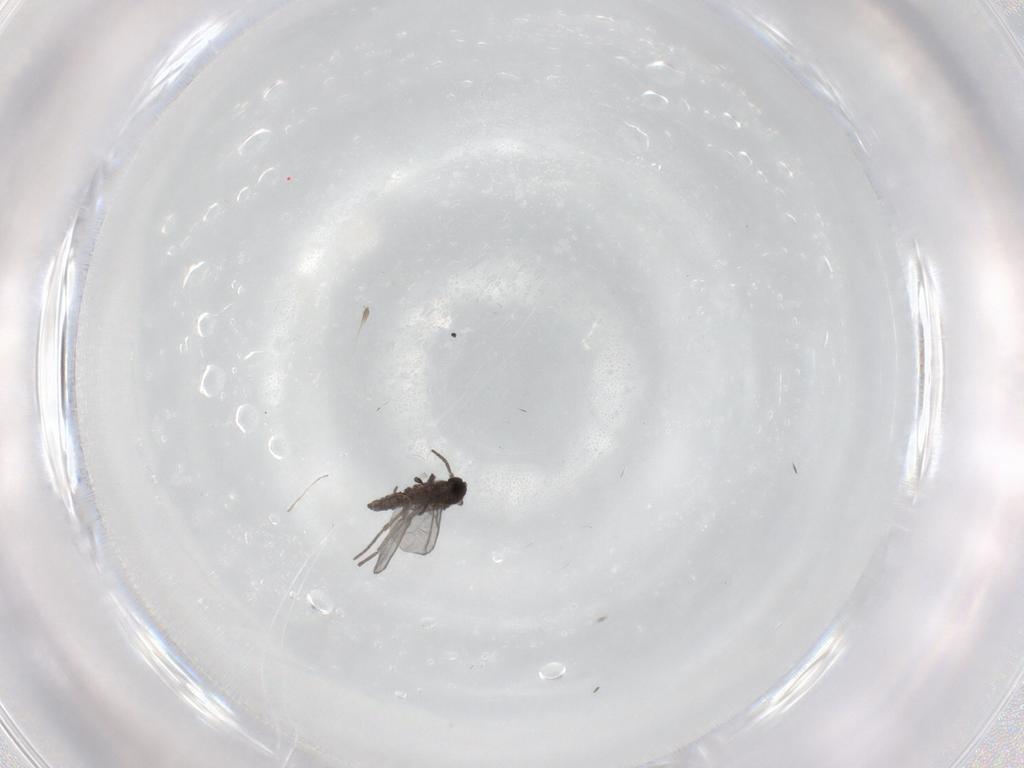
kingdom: Animalia
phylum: Arthropoda
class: Insecta
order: Diptera
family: Sciaridae
